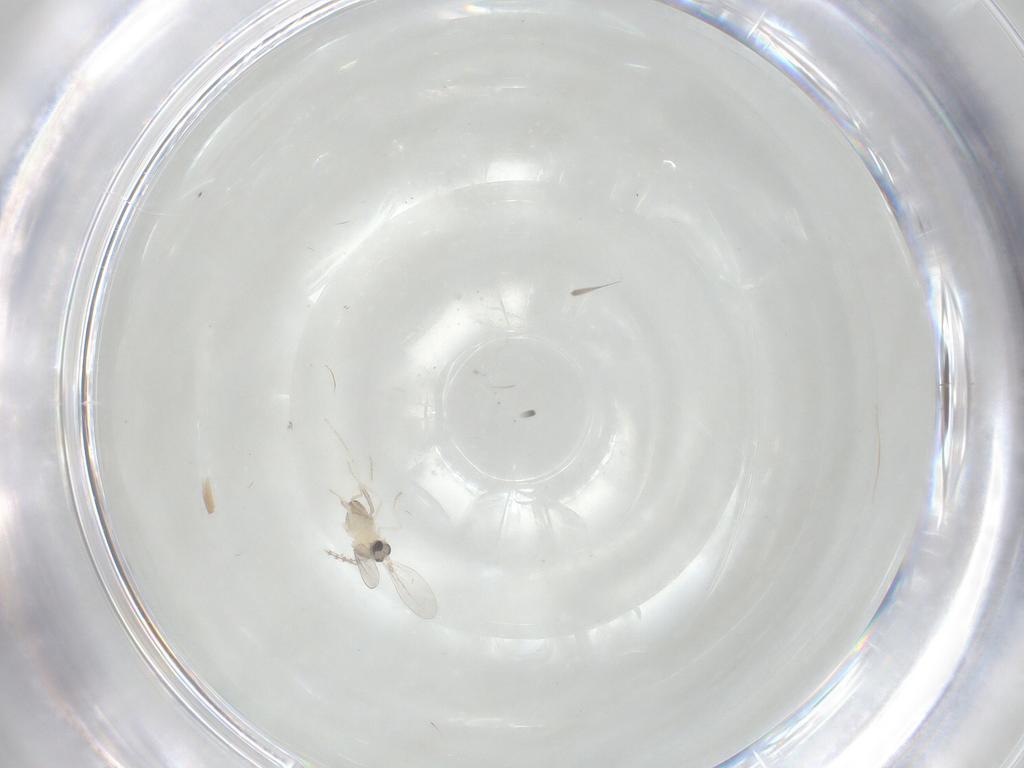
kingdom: Animalia
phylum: Arthropoda
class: Insecta
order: Diptera
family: Cecidomyiidae
